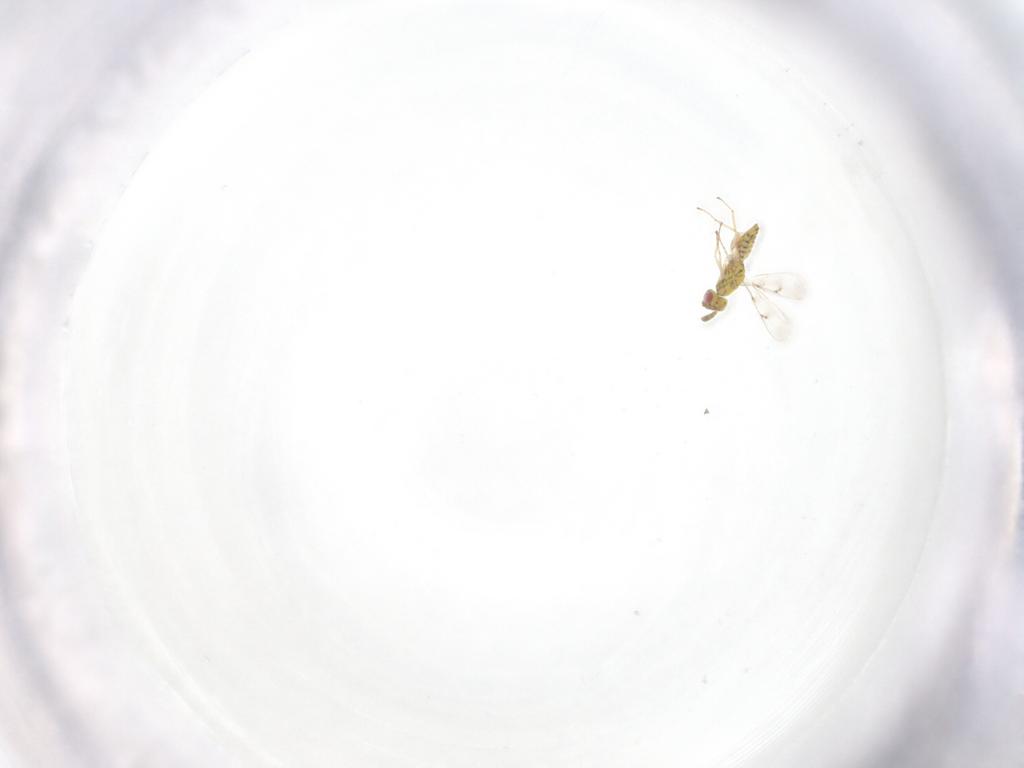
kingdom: Animalia
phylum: Arthropoda
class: Insecta
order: Hymenoptera
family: Eulophidae
